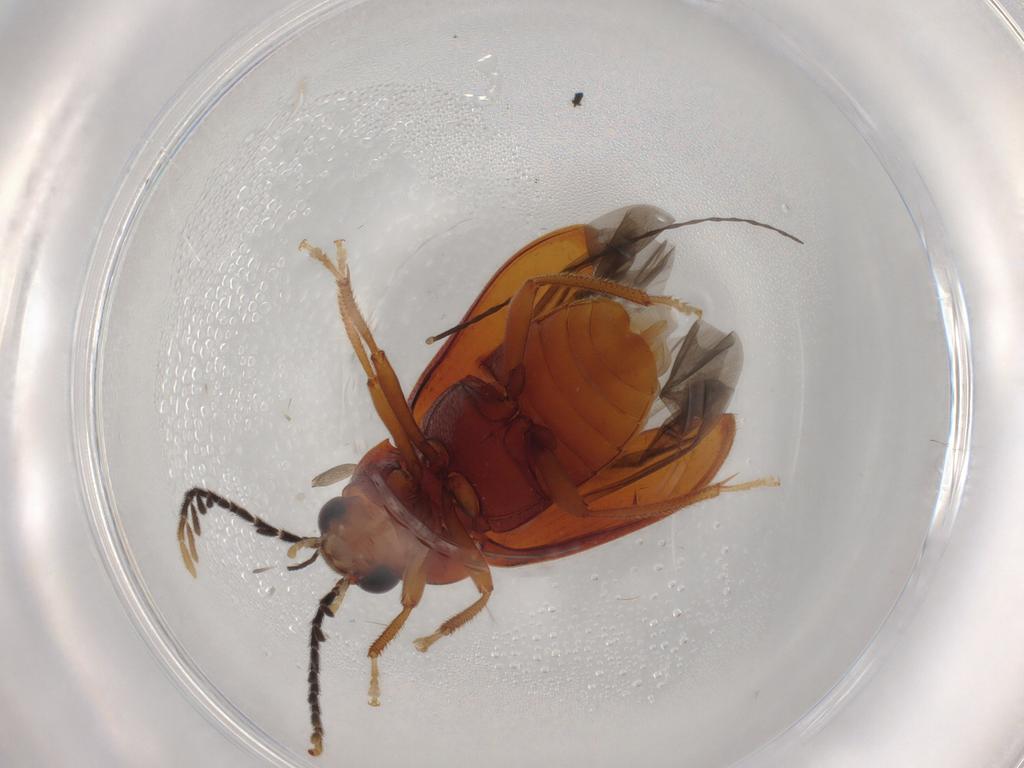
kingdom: Animalia
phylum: Arthropoda
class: Insecta
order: Coleoptera
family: Ptilodactylidae
